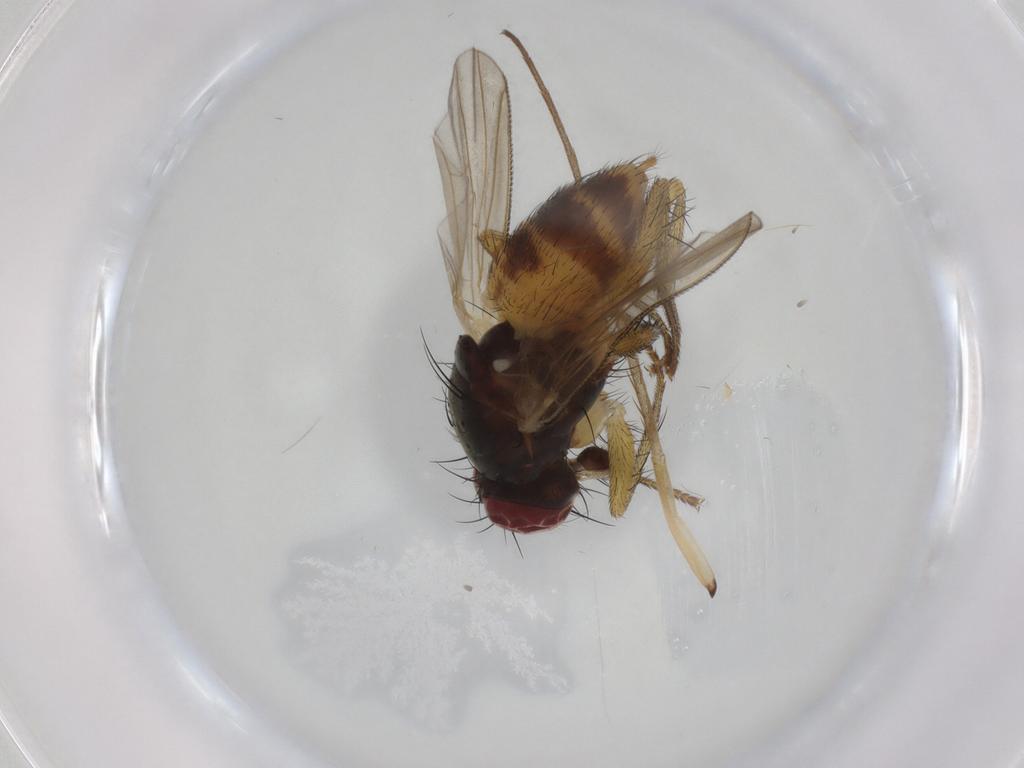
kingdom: Animalia
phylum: Arthropoda
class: Insecta
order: Diptera
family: Muscidae
